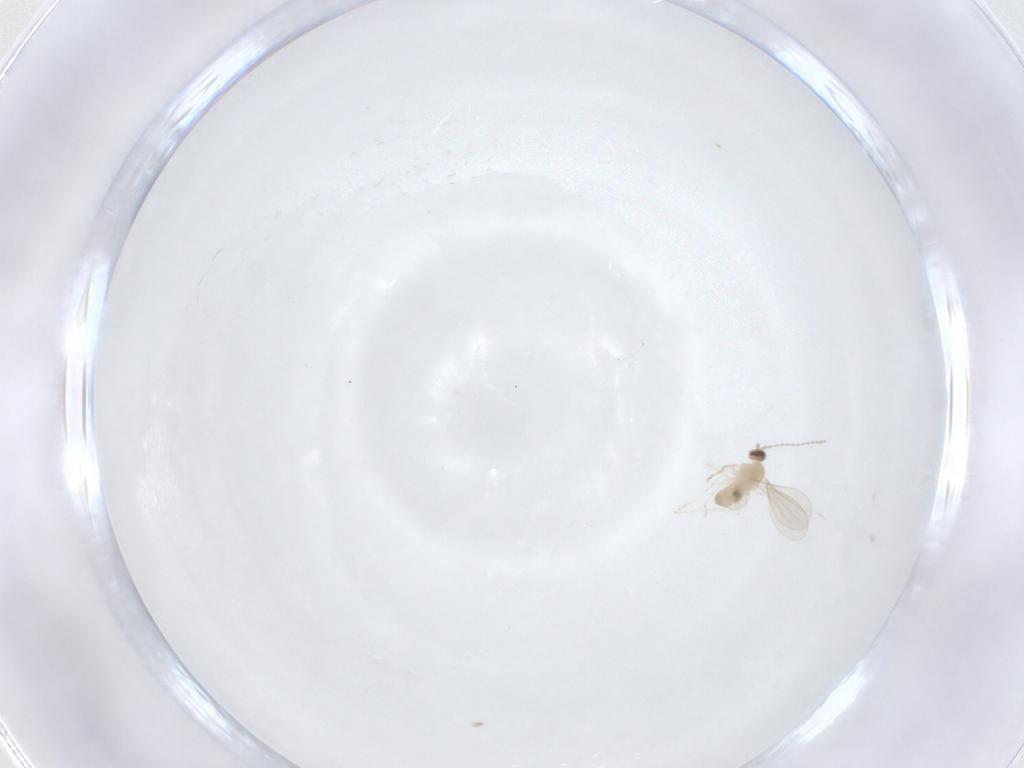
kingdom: Animalia
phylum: Arthropoda
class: Insecta
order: Diptera
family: Cecidomyiidae
